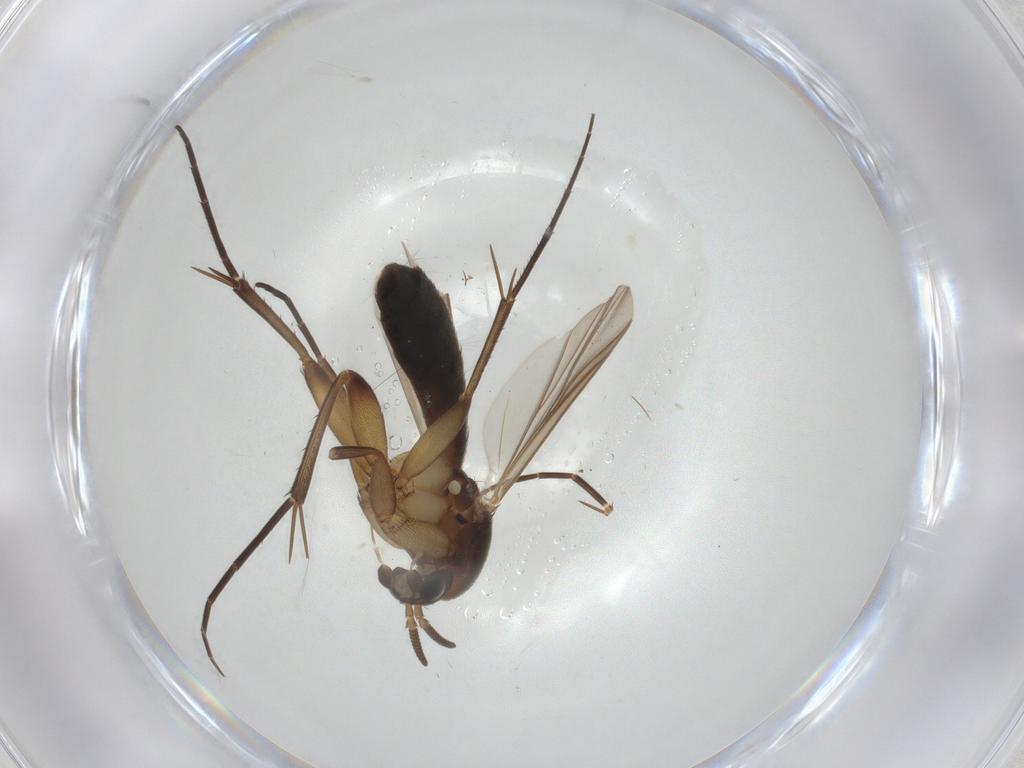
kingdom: Animalia
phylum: Arthropoda
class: Insecta
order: Diptera
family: Mycetophilidae
